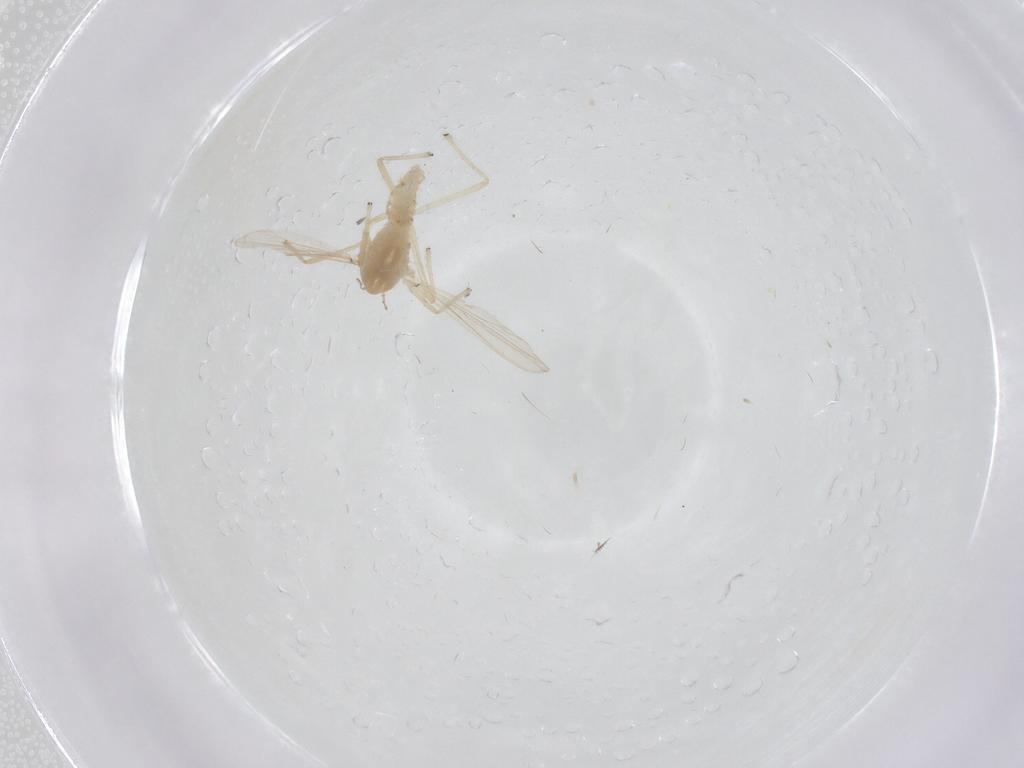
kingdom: Animalia
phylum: Arthropoda
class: Insecta
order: Diptera
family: Chironomidae
